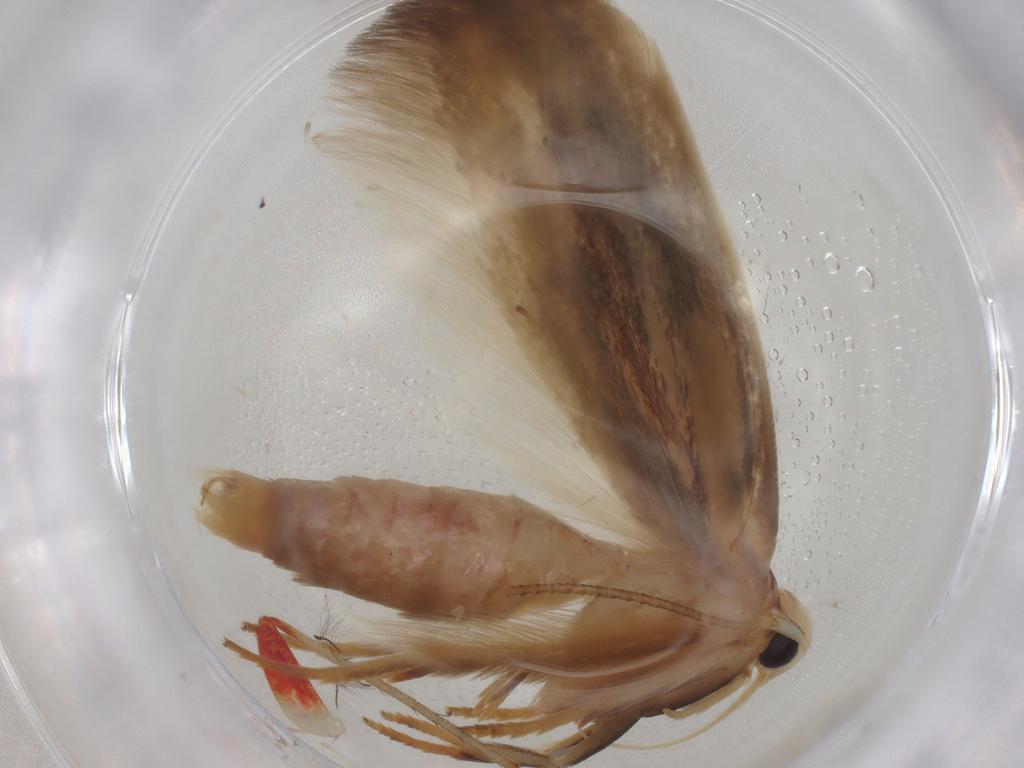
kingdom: Animalia
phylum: Arthropoda
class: Insecta
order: Lepidoptera
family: Geometridae
